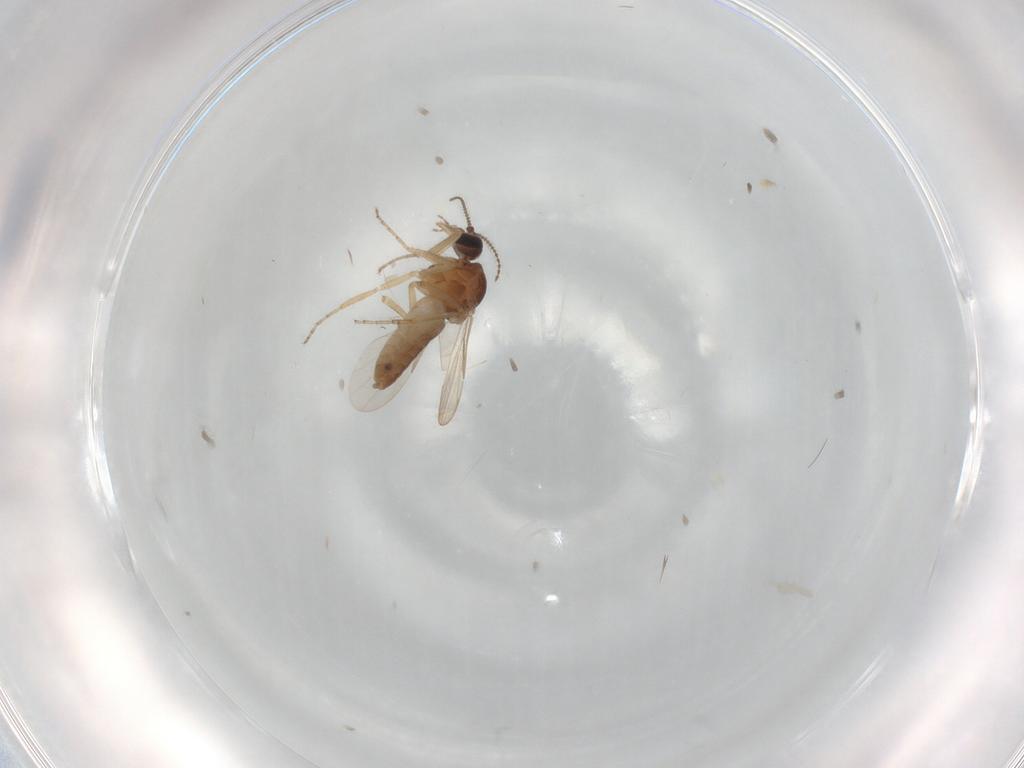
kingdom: Animalia
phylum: Arthropoda
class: Insecta
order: Diptera
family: Ceratopogonidae
